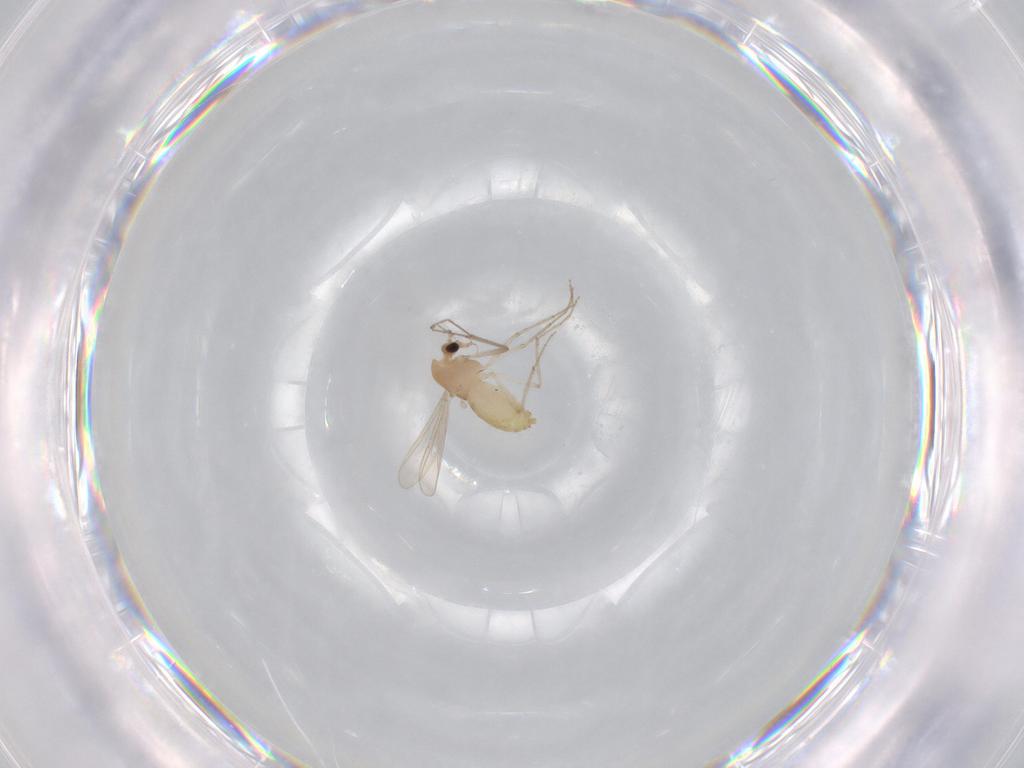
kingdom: Animalia
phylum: Arthropoda
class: Insecta
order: Diptera
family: Chironomidae
